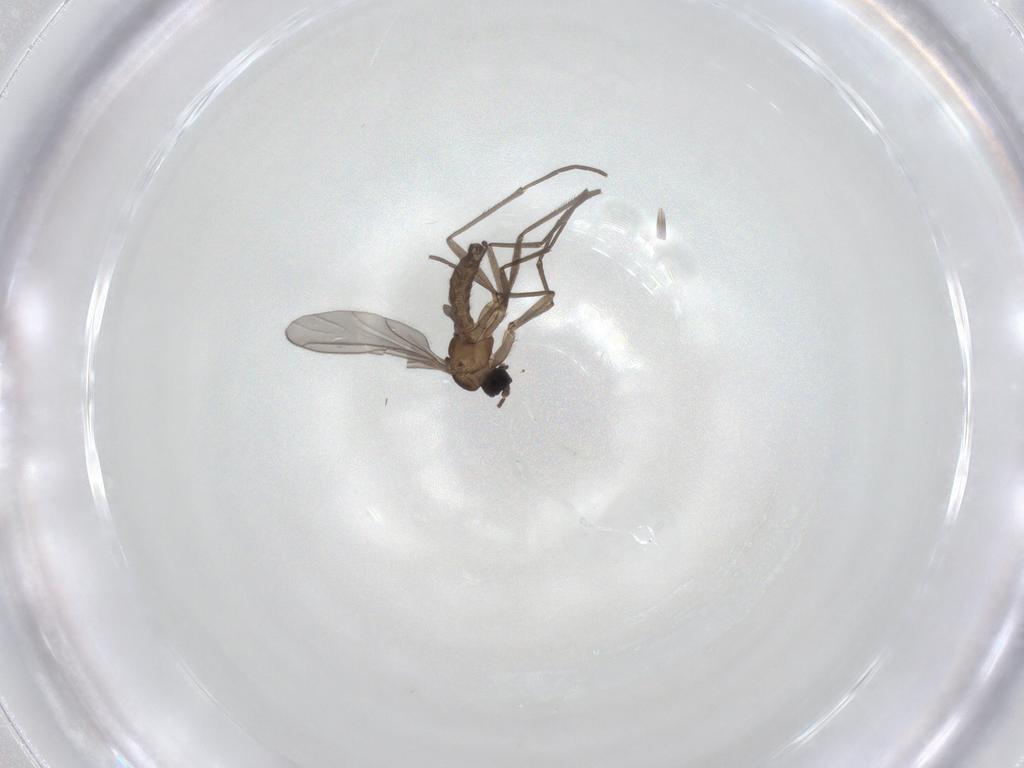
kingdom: Animalia
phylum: Arthropoda
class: Insecta
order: Diptera
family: Sciaridae
